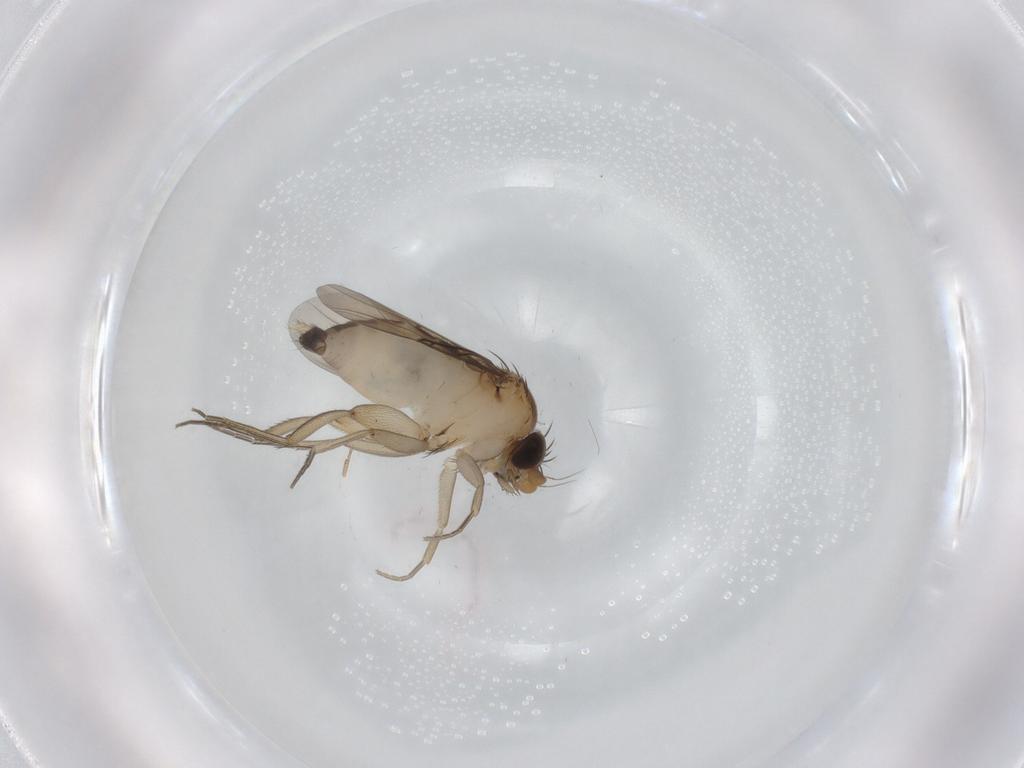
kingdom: Animalia
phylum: Arthropoda
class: Insecta
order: Diptera
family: Phoridae
